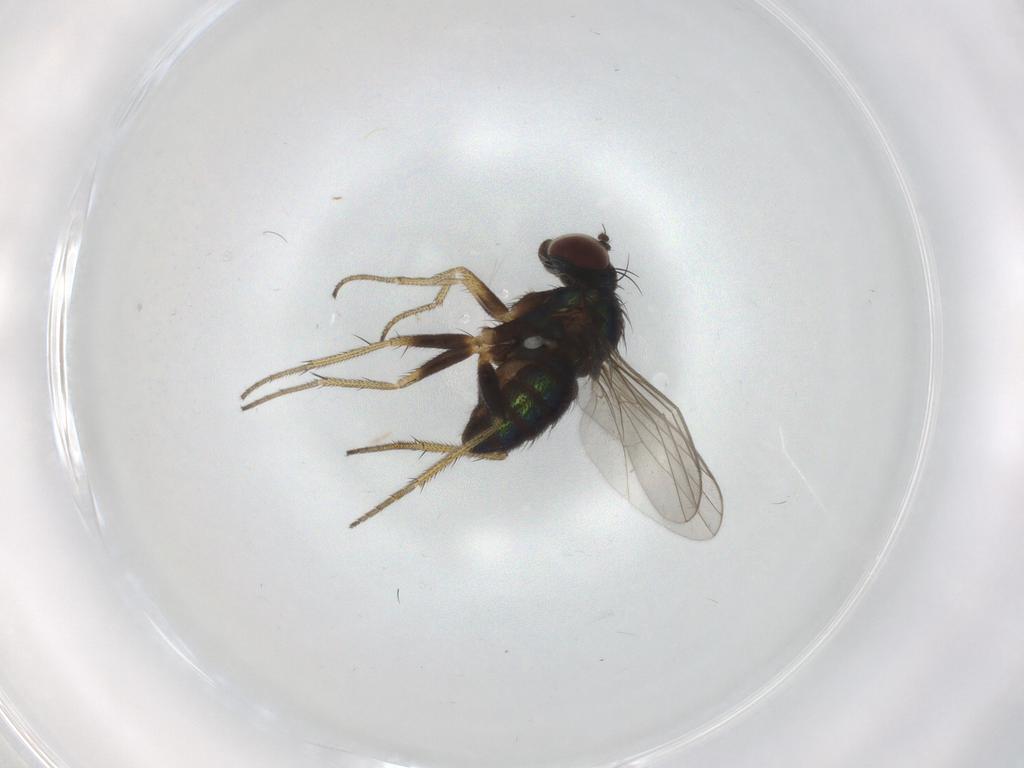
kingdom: Animalia
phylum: Arthropoda
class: Insecta
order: Diptera
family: Dolichopodidae
